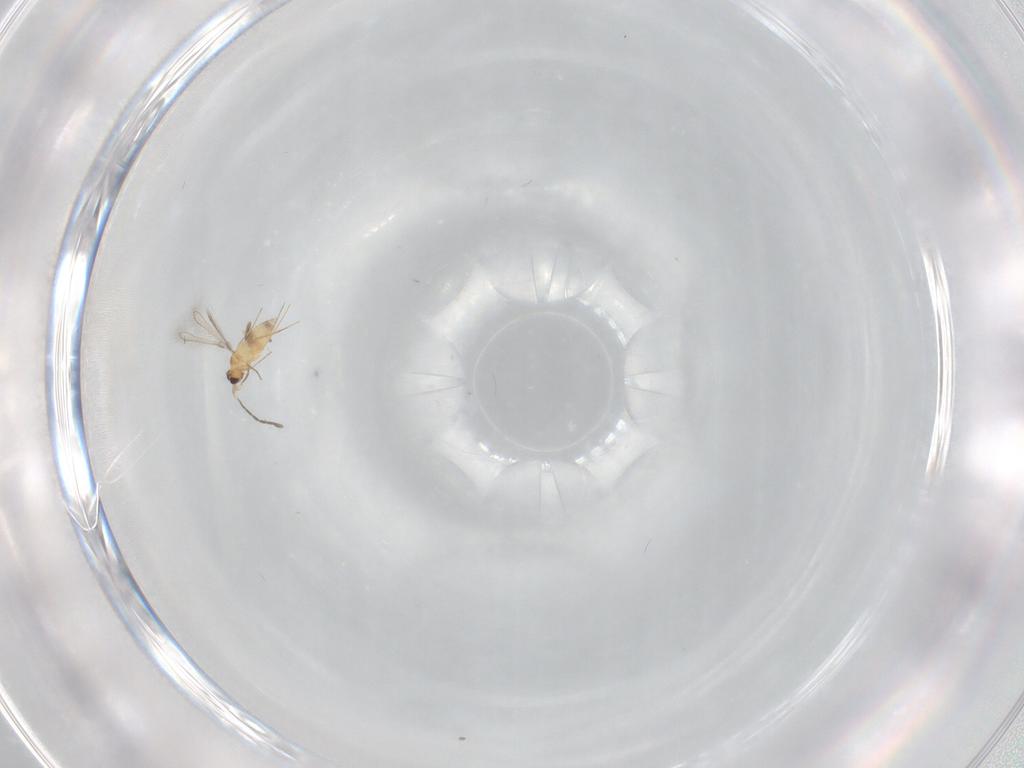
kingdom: Animalia
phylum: Arthropoda
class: Insecta
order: Hymenoptera
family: Mymaridae
